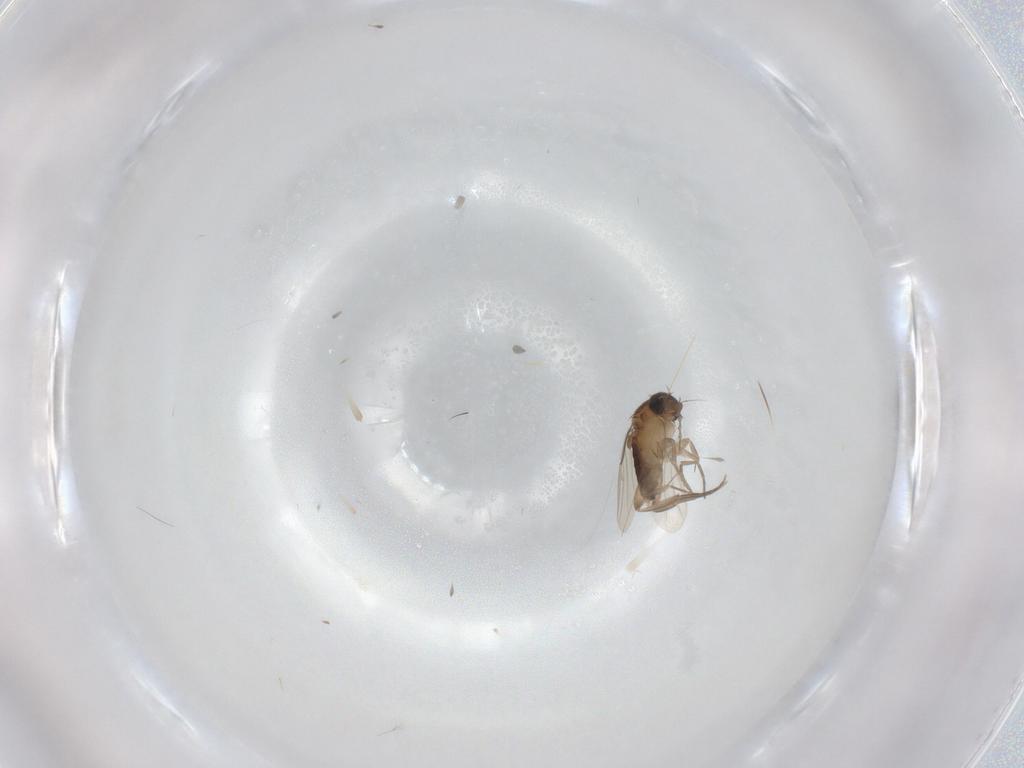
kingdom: Animalia
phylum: Arthropoda
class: Insecta
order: Diptera
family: Phoridae
